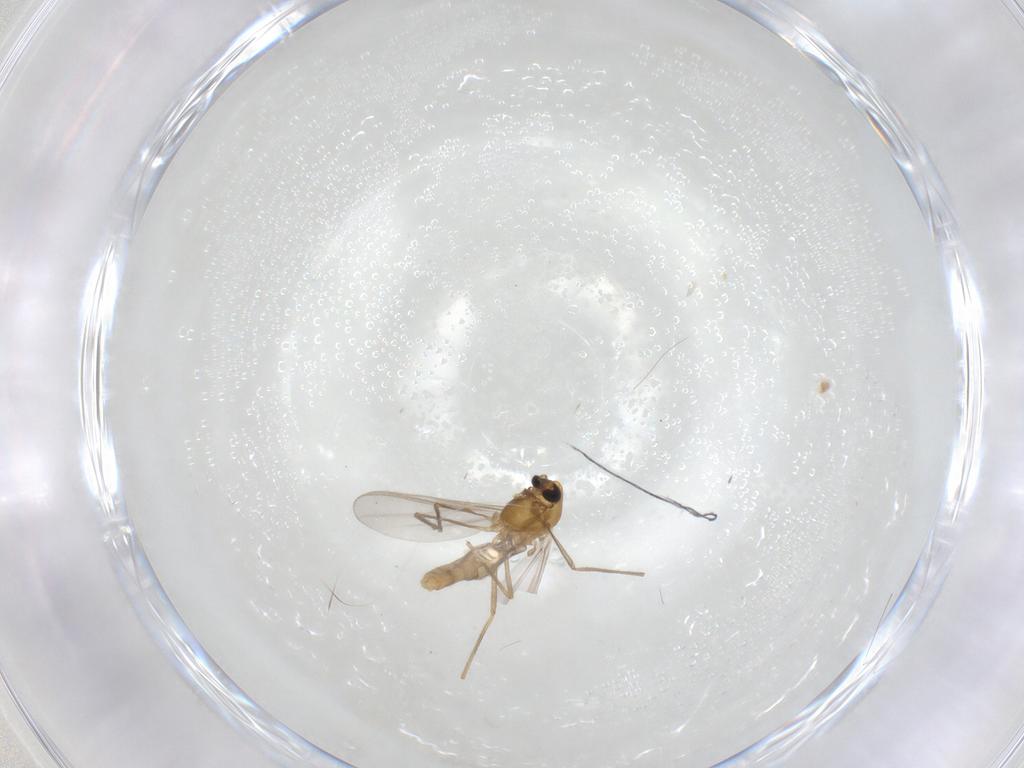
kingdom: Animalia
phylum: Arthropoda
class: Insecta
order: Diptera
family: Chironomidae
